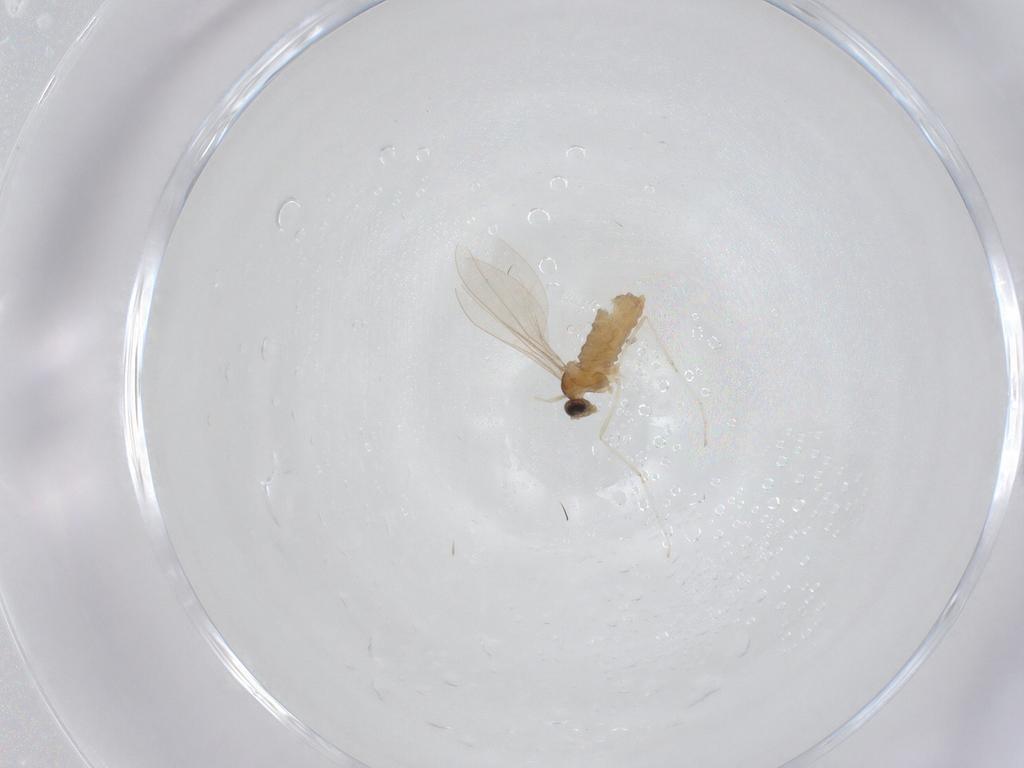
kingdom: Animalia
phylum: Arthropoda
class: Insecta
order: Diptera
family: Cecidomyiidae
